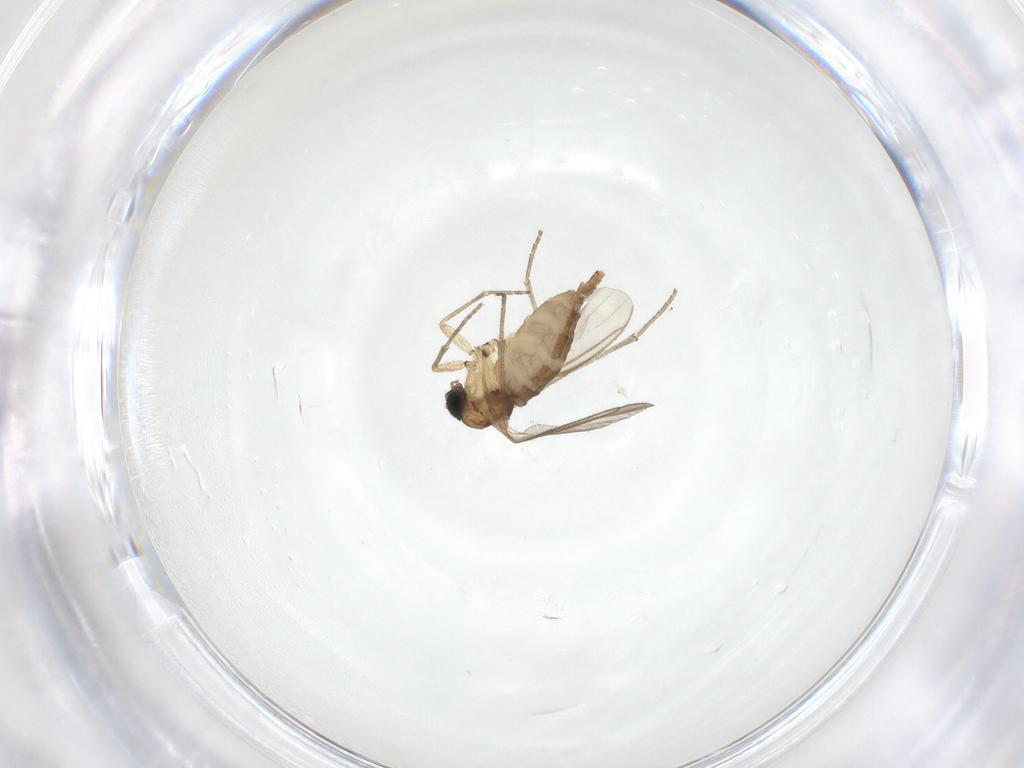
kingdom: Animalia
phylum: Arthropoda
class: Insecta
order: Diptera
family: Sciaridae
